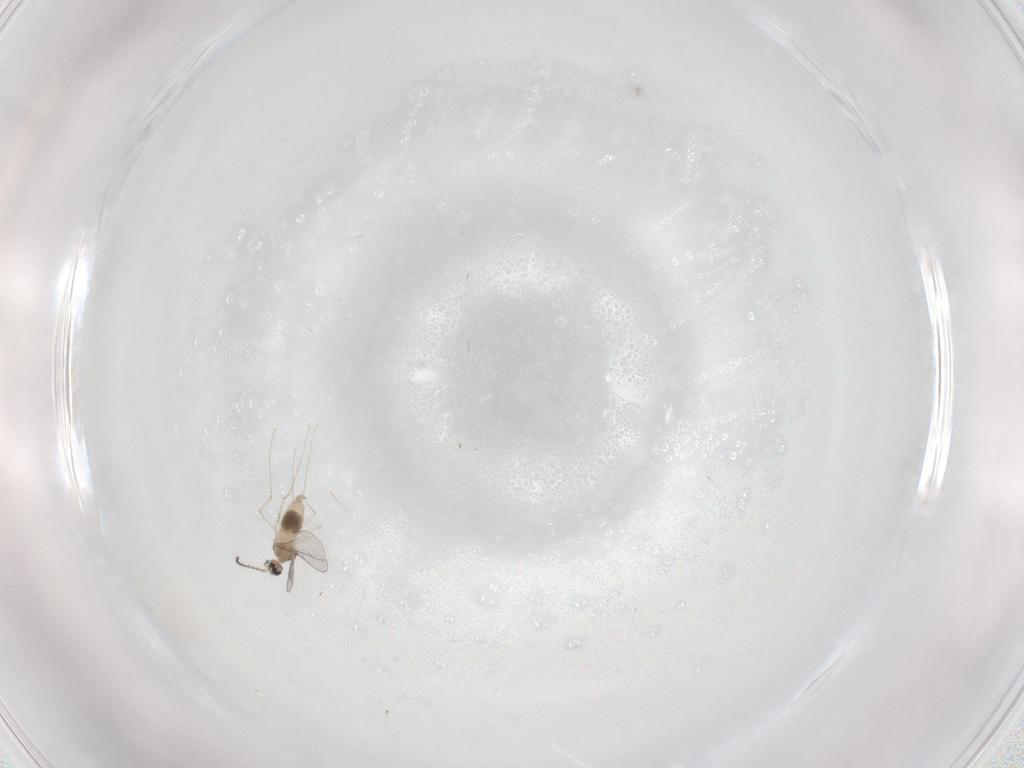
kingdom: Animalia
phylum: Arthropoda
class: Insecta
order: Diptera
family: Cecidomyiidae
